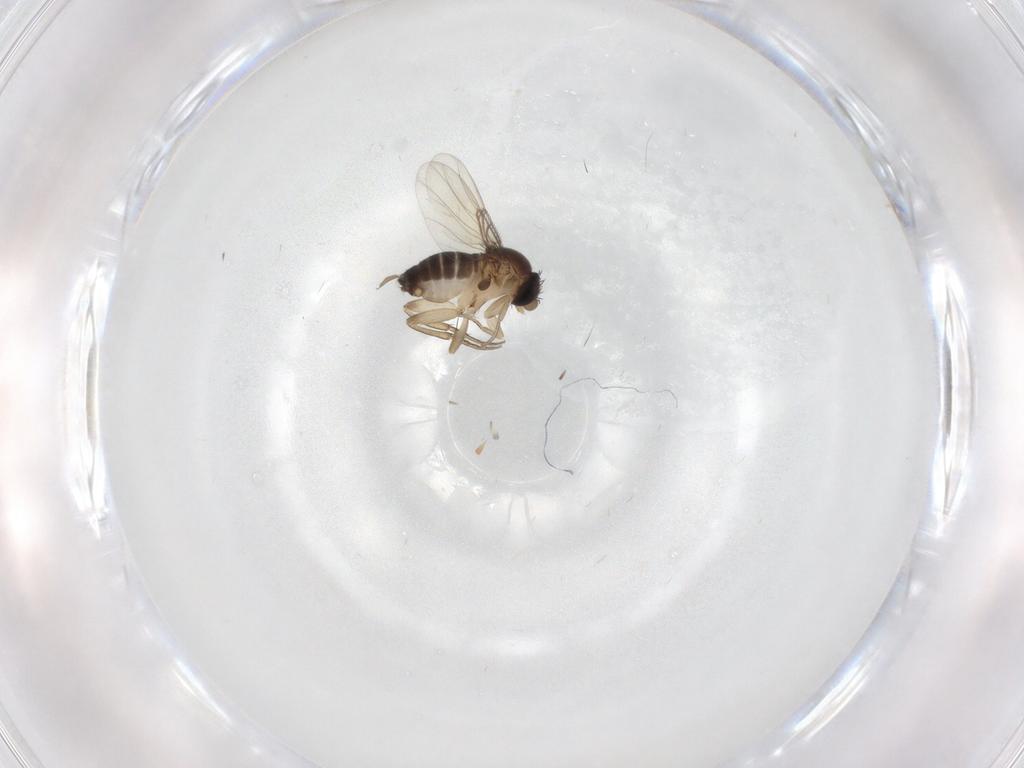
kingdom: Animalia
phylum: Arthropoda
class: Insecta
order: Diptera
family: Phoridae
